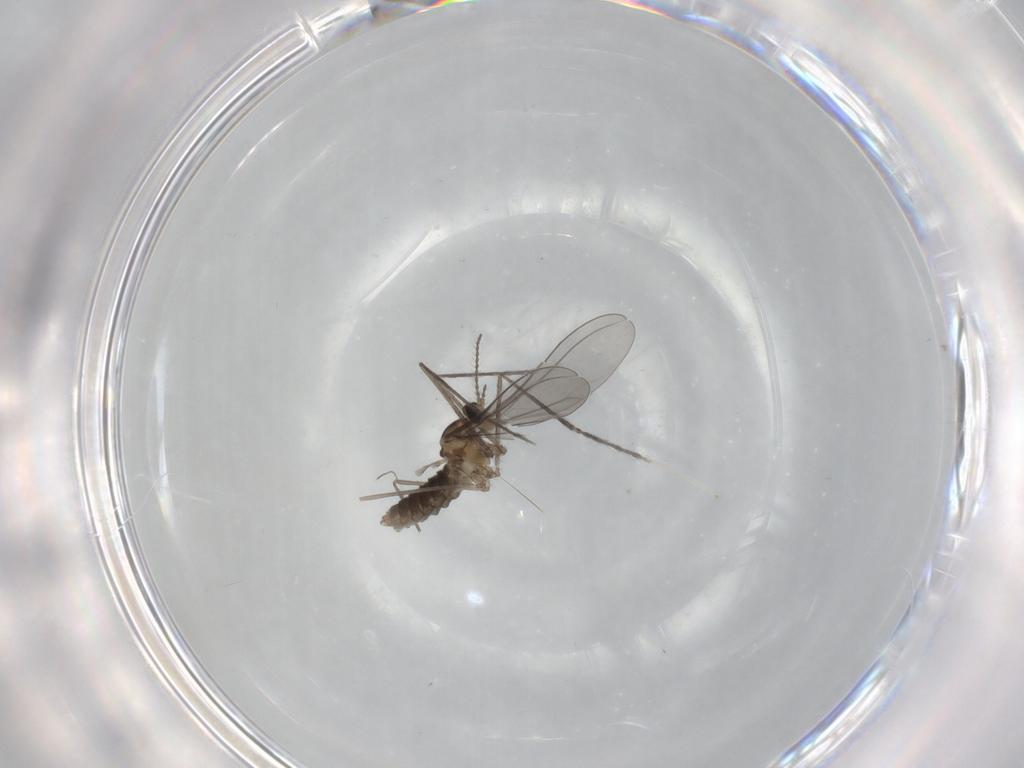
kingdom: Animalia
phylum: Arthropoda
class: Insecta
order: Diptera
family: Cecidomyiidae
